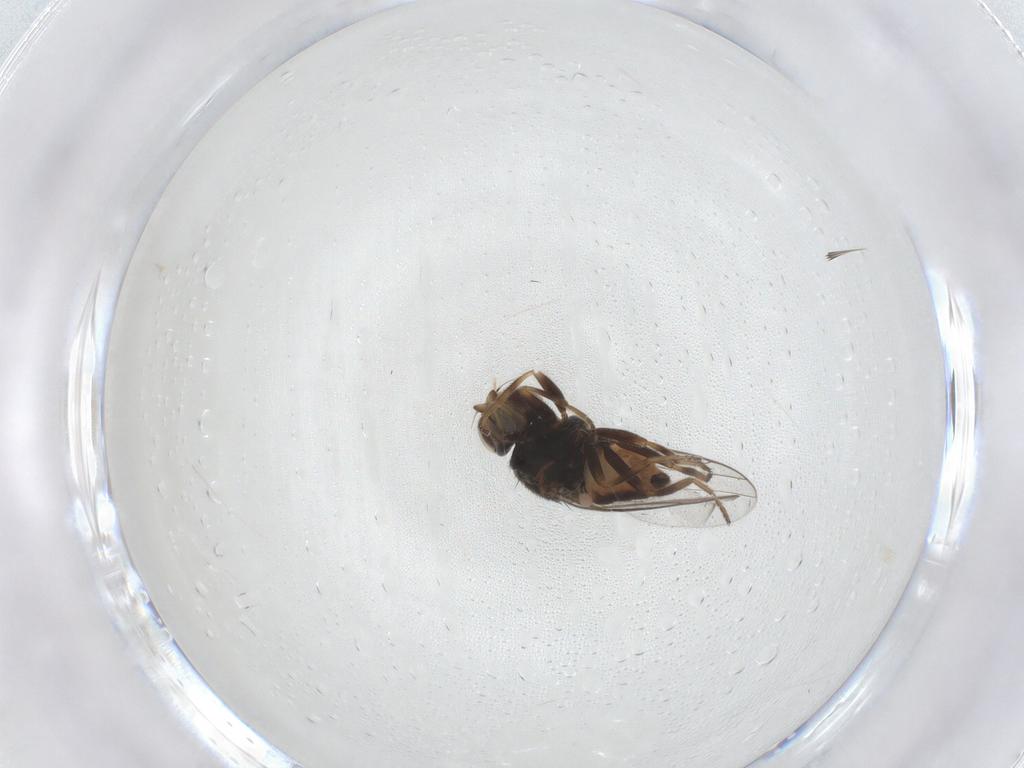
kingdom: Animalia
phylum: Arthropoda
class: Insecta
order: Diptera
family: Chloropidae
